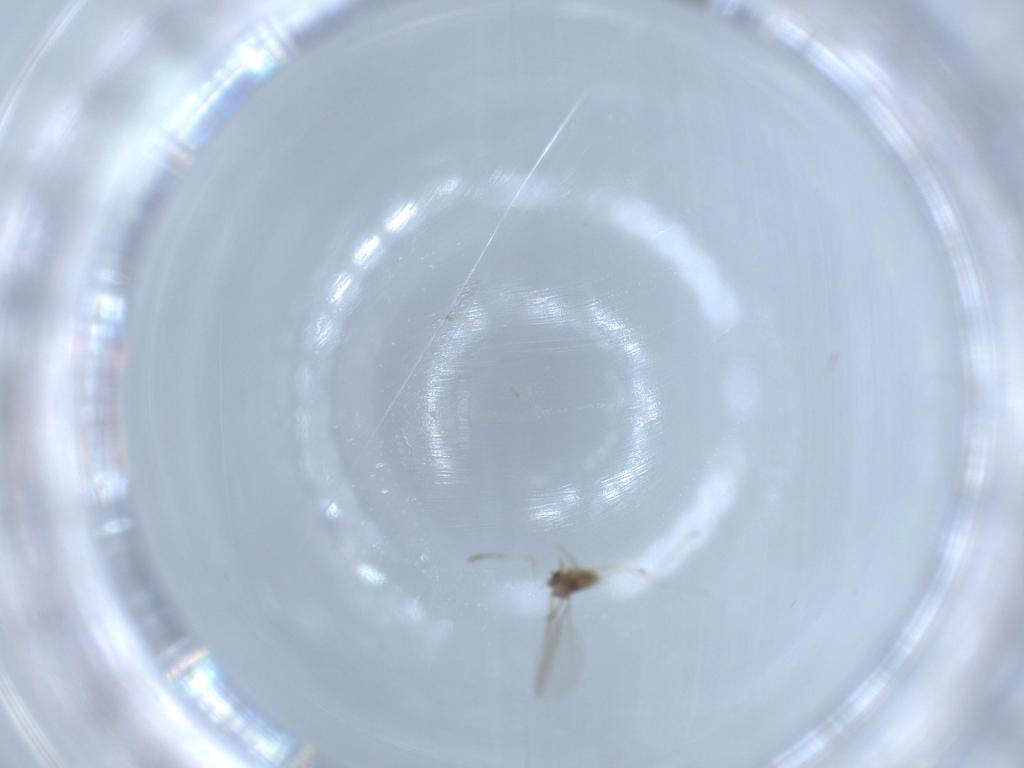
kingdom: Animalia
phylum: Arthropoda
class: Insecta
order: Diptera
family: Cecidomyiidae
